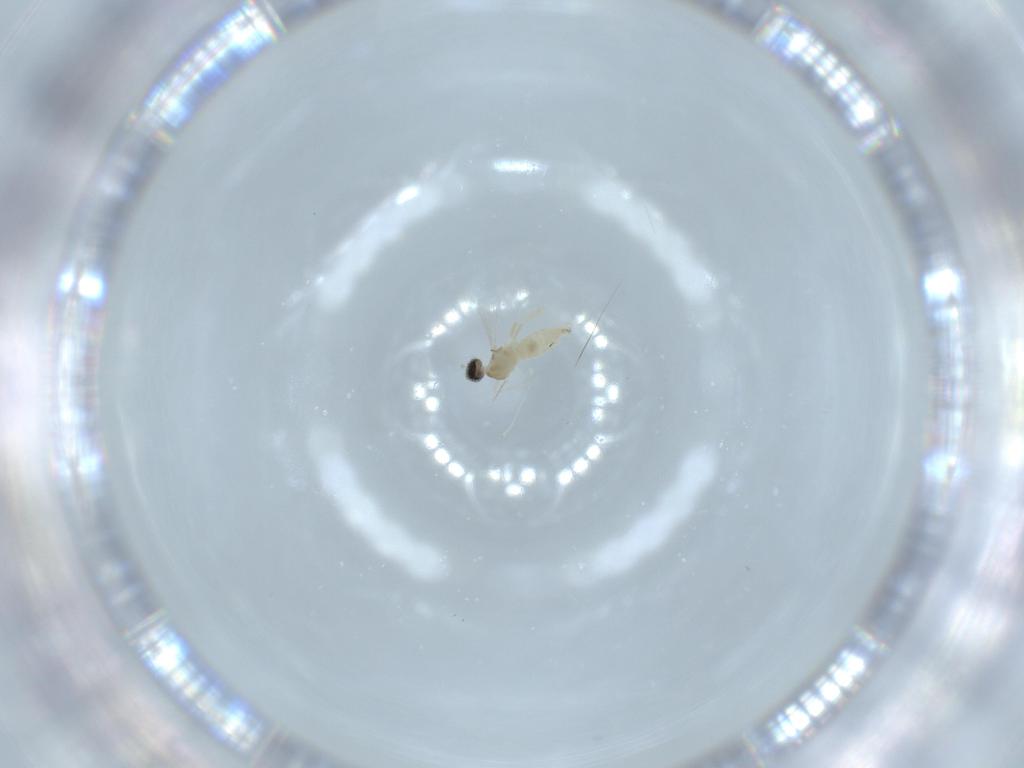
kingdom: Animalia
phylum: Arthropoda
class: Insecta
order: Diptera
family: Cecidomyiidae
